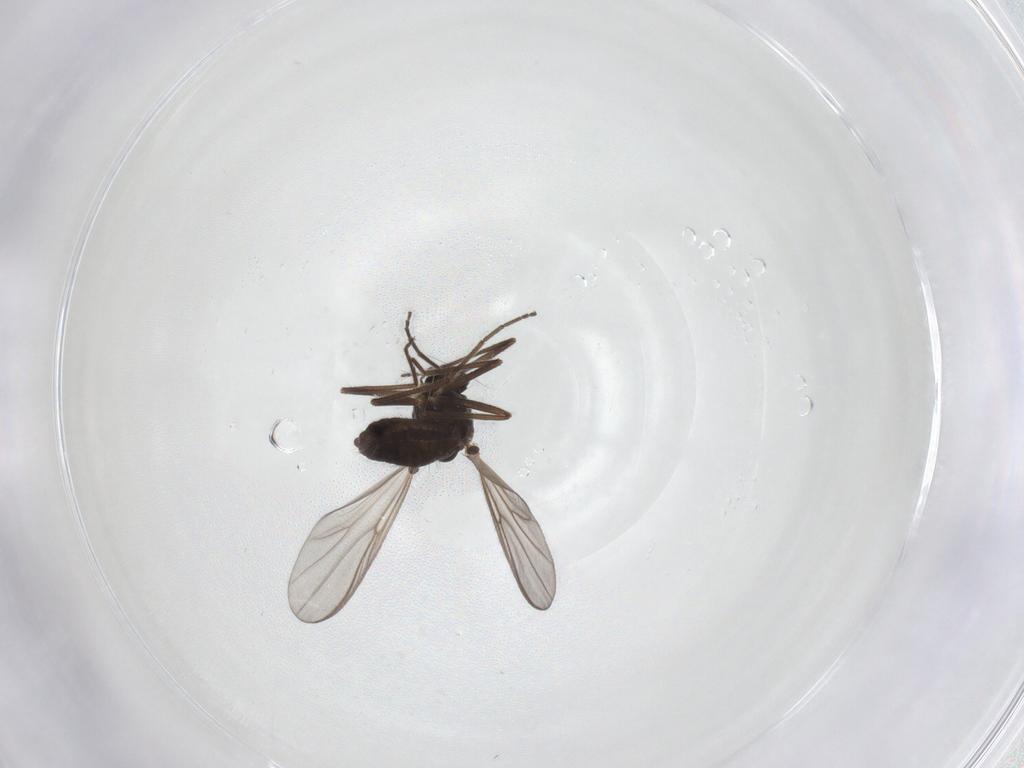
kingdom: Animalia
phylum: Arthropoda
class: Insecta
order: Diptera
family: Chironomidae
